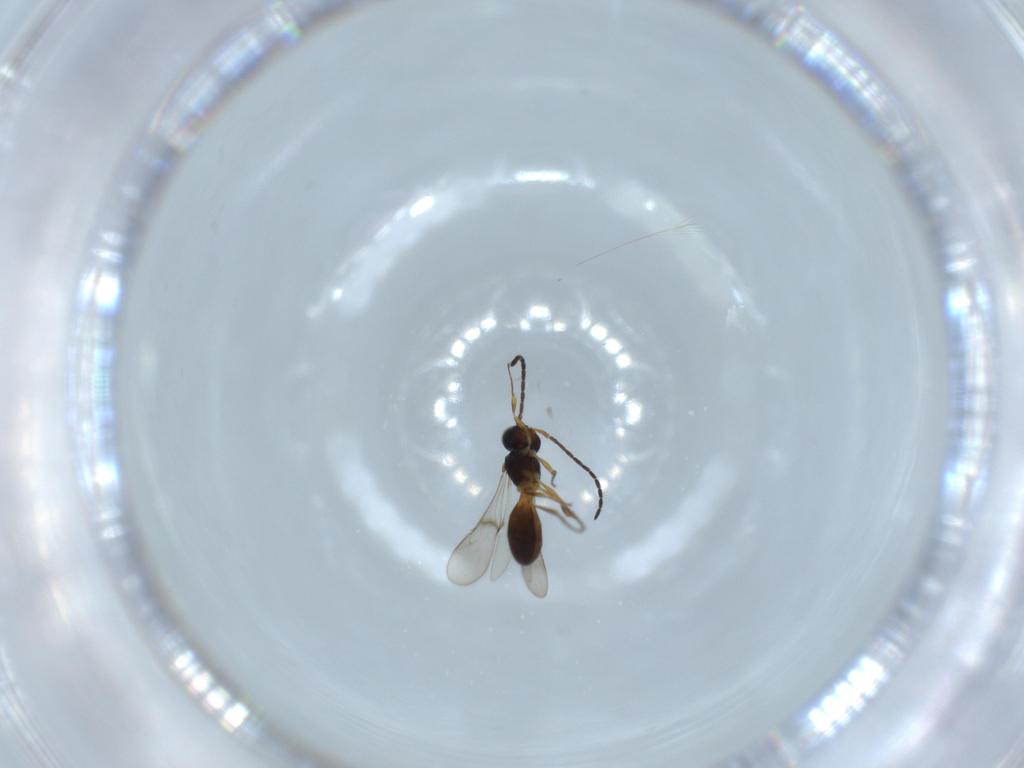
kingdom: Animalia
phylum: Arthropoda
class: Insecta
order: Hymenoptera
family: Scelionidae
